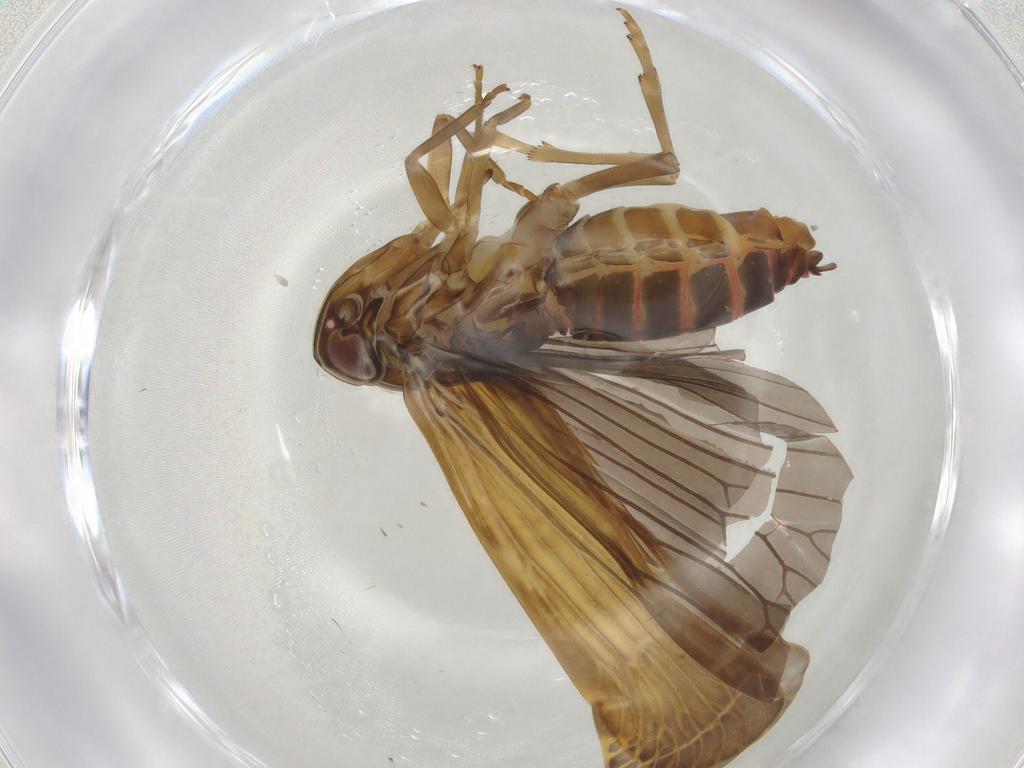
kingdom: Animalia
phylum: Arthropoda
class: Insecta
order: Hemiptera
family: Achilidae
